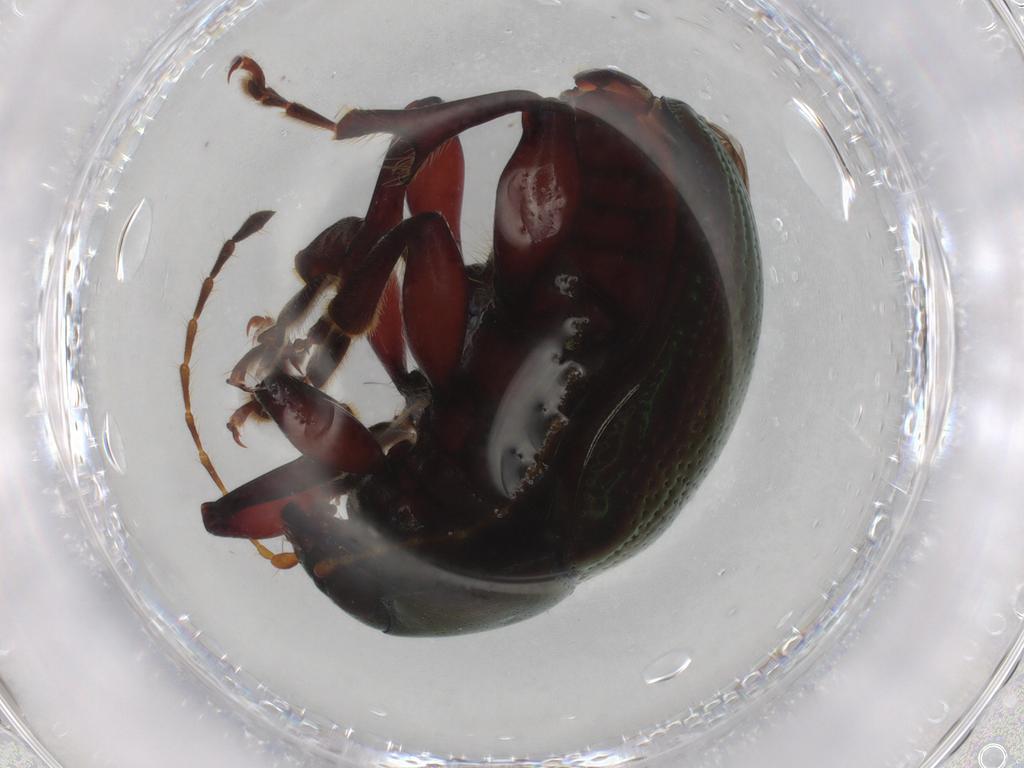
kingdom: Animalia
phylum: Arthropoda
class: Insecta
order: Coleoptera
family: Chrysomelidae
